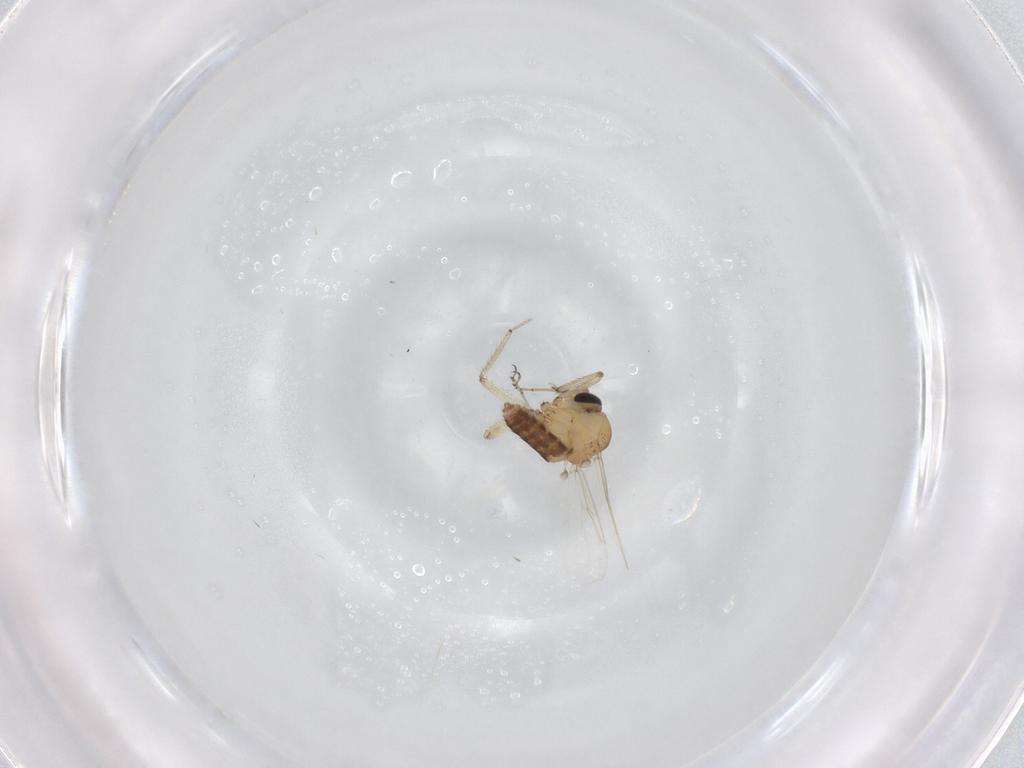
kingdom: Animalia
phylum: Arthropoda
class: Insecta
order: Diptera
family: Ceratopogonidae
